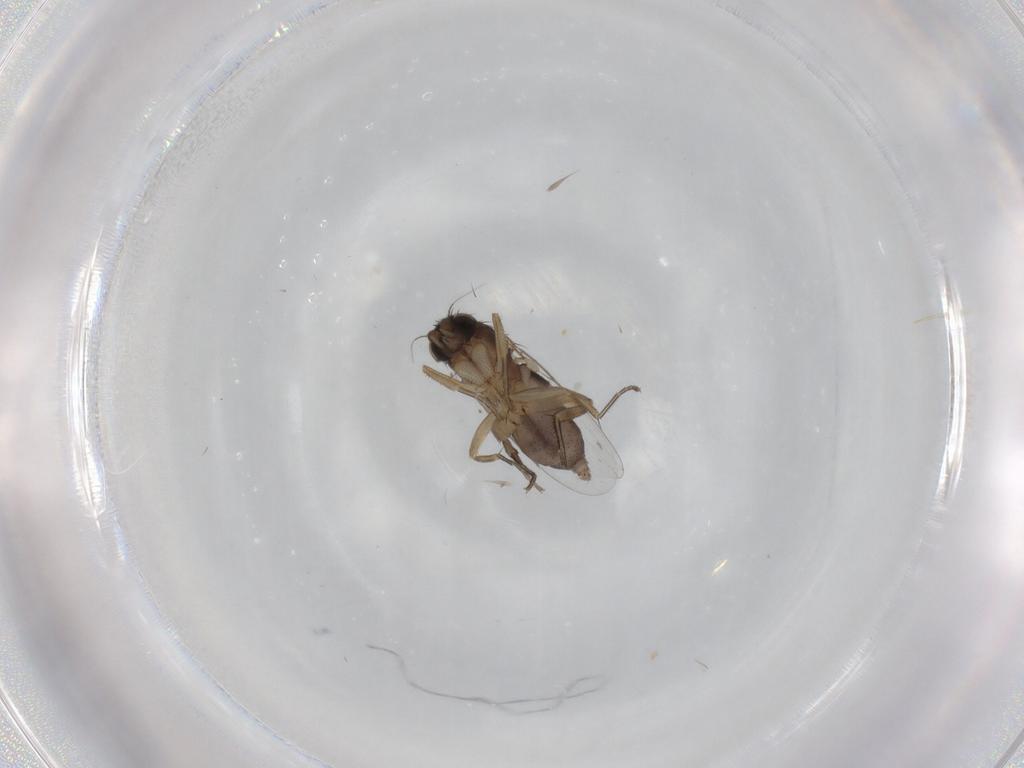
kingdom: Animalia
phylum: Arthropoda
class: Insecta
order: Diptera
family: Phoridae
